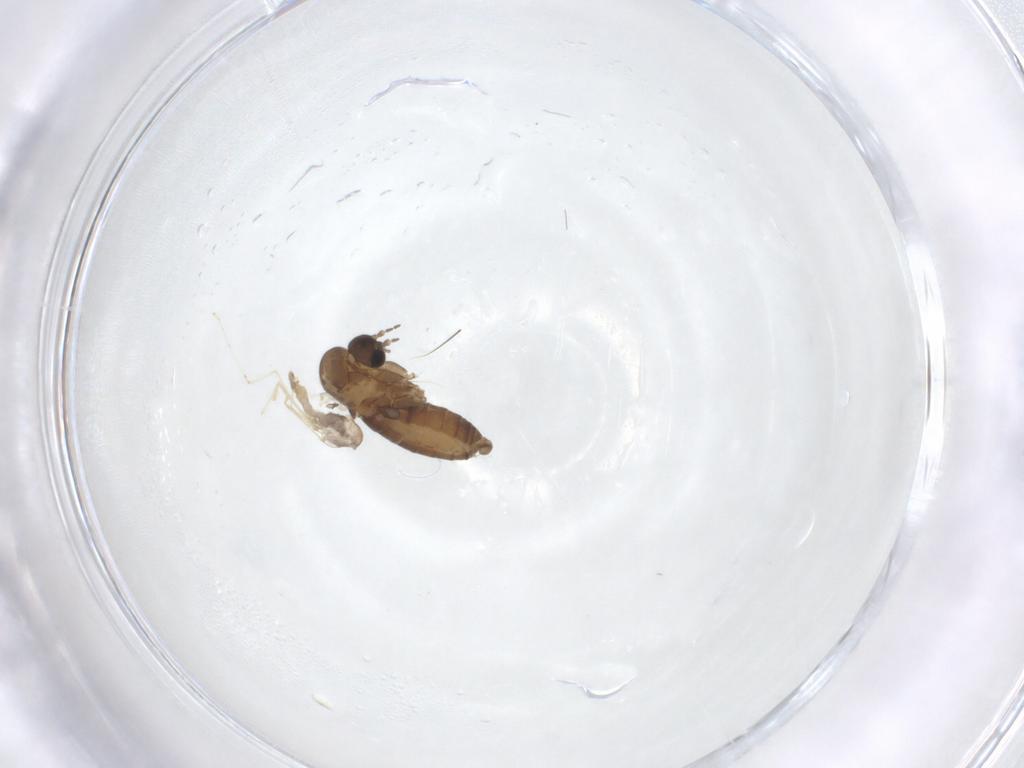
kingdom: Animalia
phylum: Arthropoda
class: Insecta
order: Diptera
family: Psychodidae
